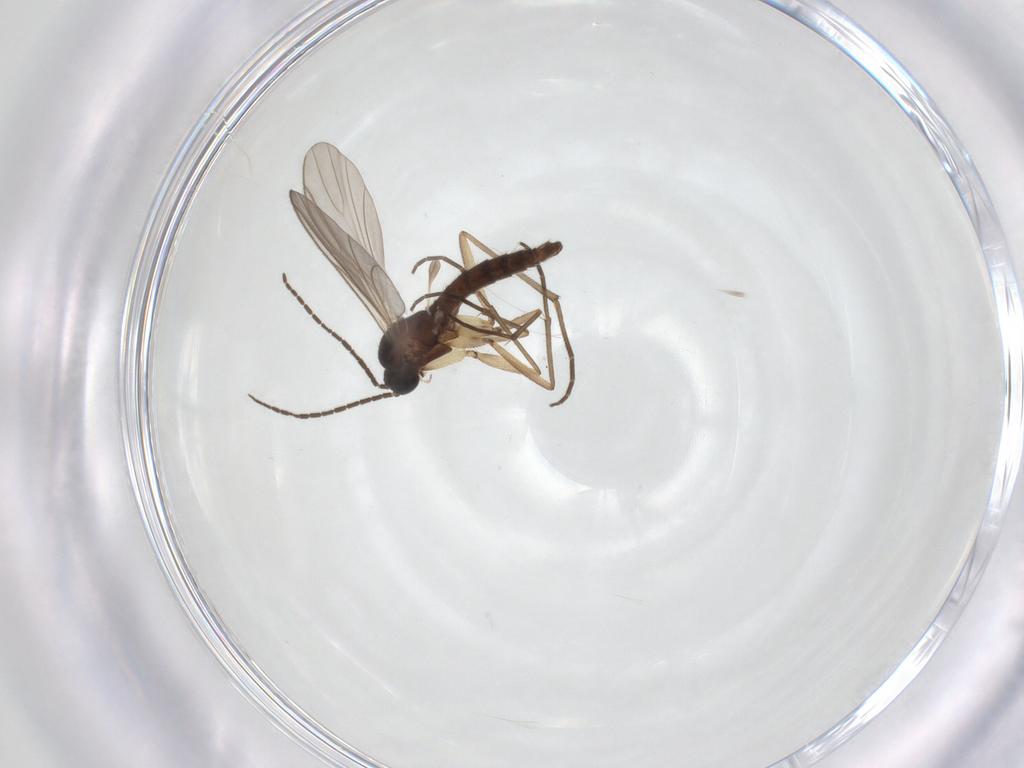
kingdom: Animalia
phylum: Arthropoda
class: Insecta
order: Diptera
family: Sciaridae
